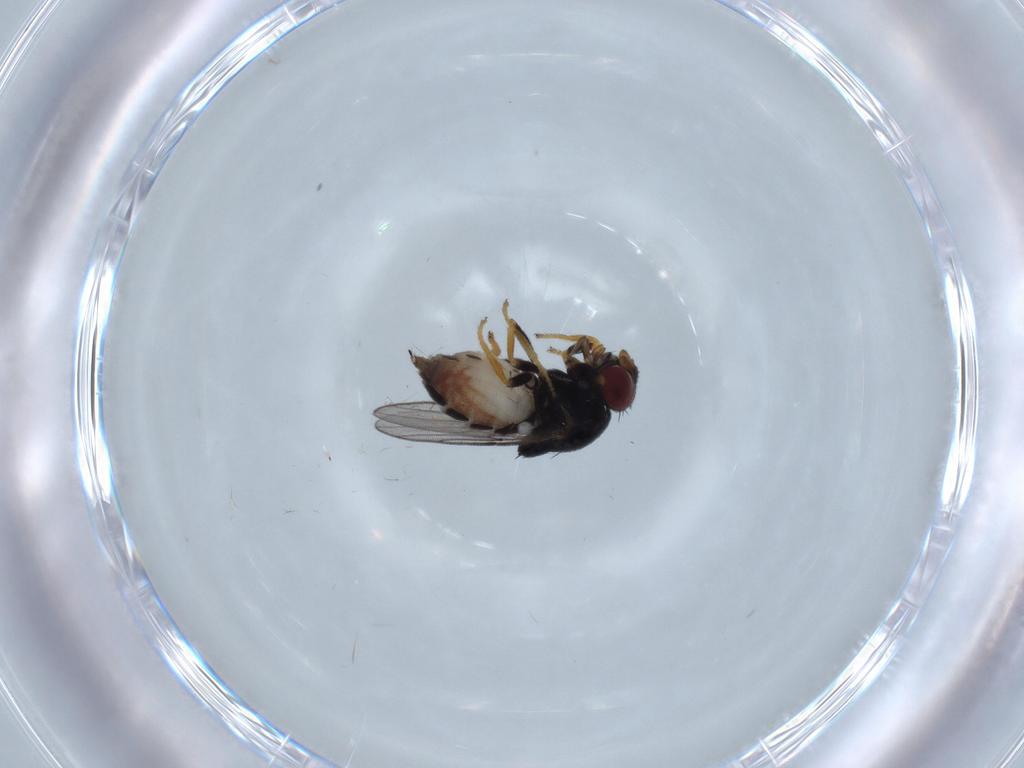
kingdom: Animalia
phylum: Arthropoda
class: Insecta
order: Diptera
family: Chloropidae
